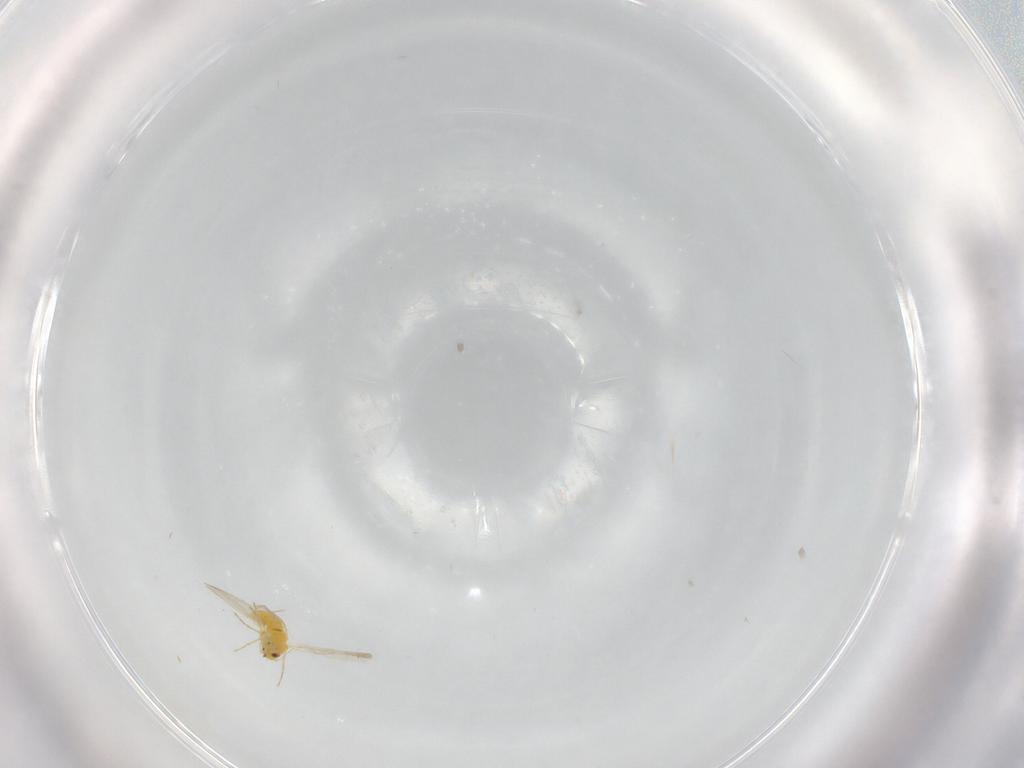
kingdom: Animalia
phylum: Arthropoda
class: Insecta
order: Hemiptera
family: Aleyrodidae
